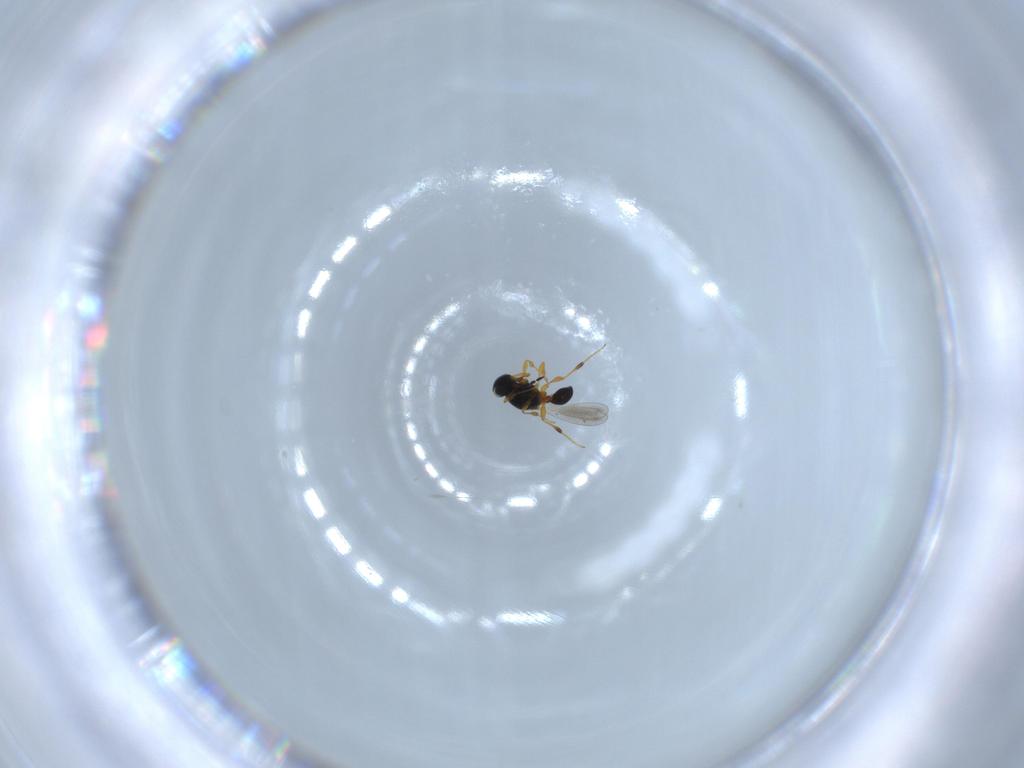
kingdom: Animalia
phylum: Arthropoda
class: Insecta
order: Hymenoptera
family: Platygastridae
